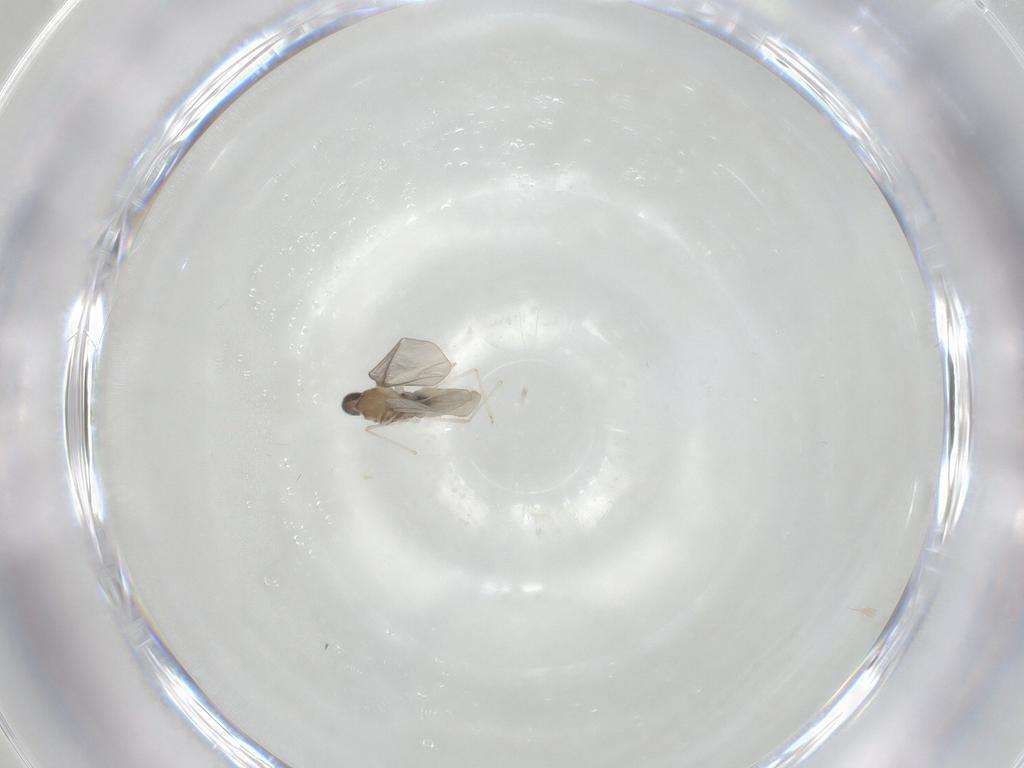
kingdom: Animalia
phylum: Arthropoda
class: Insecta
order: Diptera
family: Cecidomyiidae
